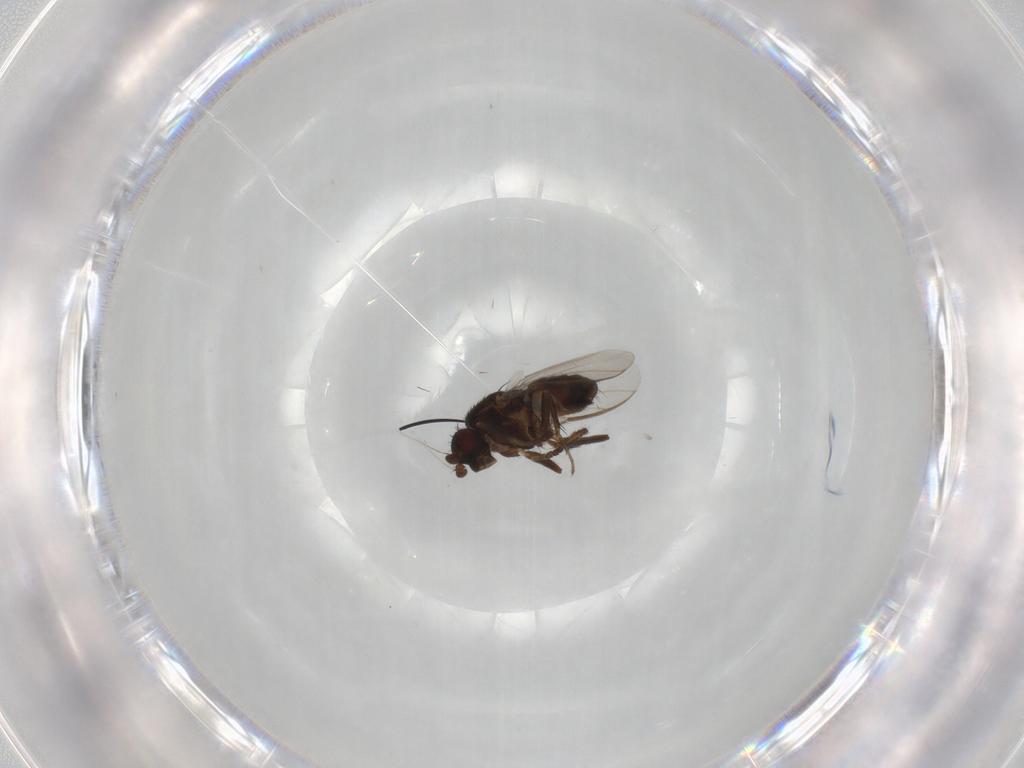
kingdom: Animalia
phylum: Arthropoda
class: Insecta
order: Diptera
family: Sphaeroceridae
